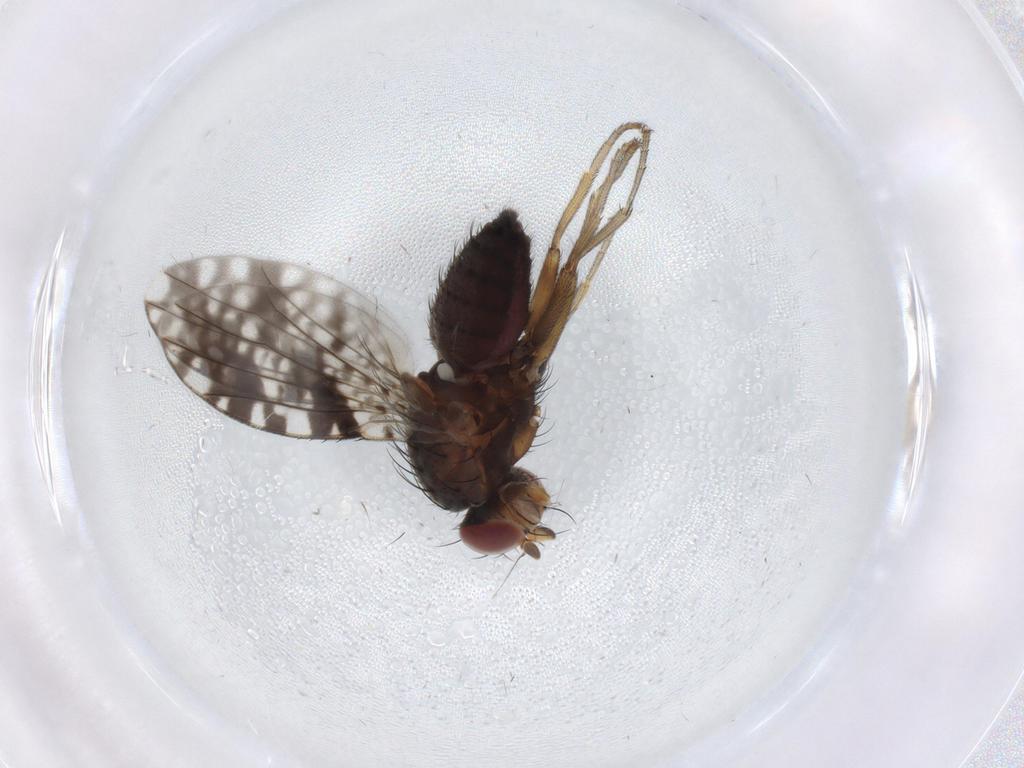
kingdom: Animalia
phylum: Arthropoda
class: Insecta
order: Diptera
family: Tephritidae
